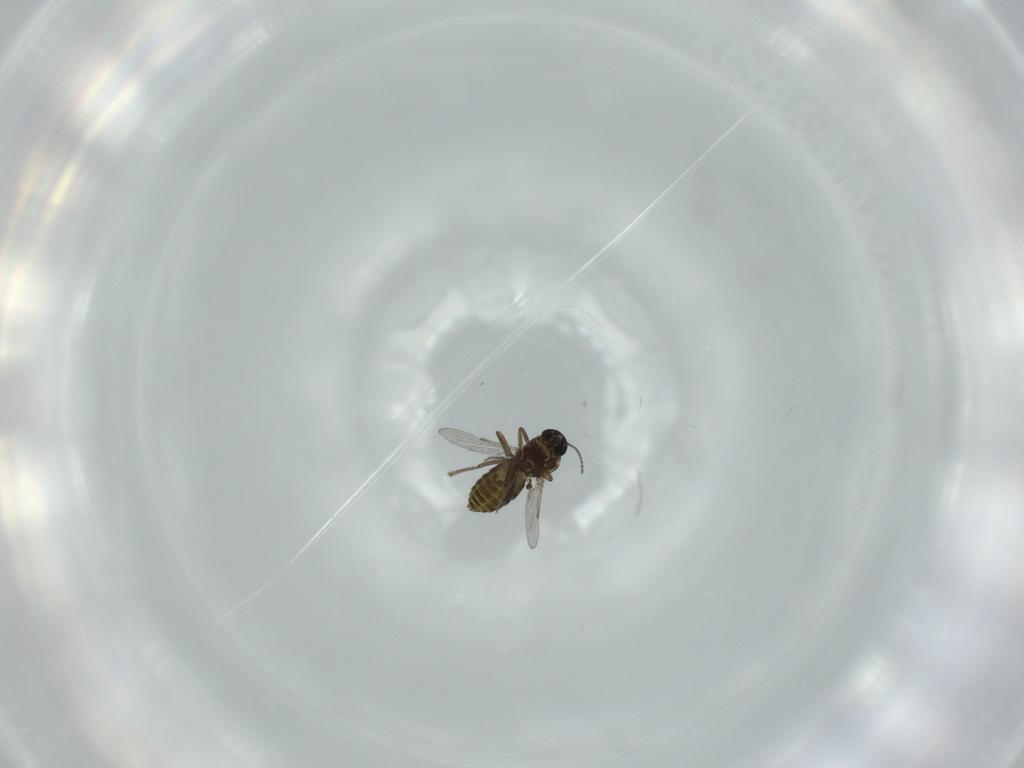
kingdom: Animalia
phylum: Arthropoda
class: Insecta
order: Diptera
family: Ceratopogonidae
